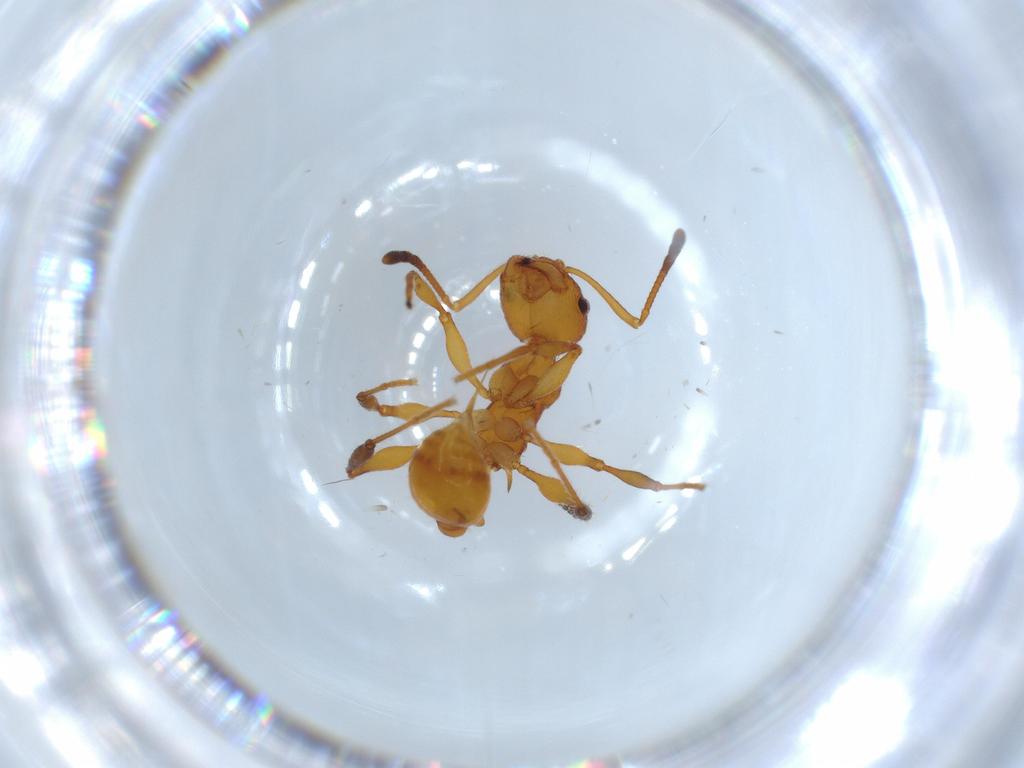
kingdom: Animalia
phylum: Arthropoda
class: Insecta
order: Hymenoptera
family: Formicidae
